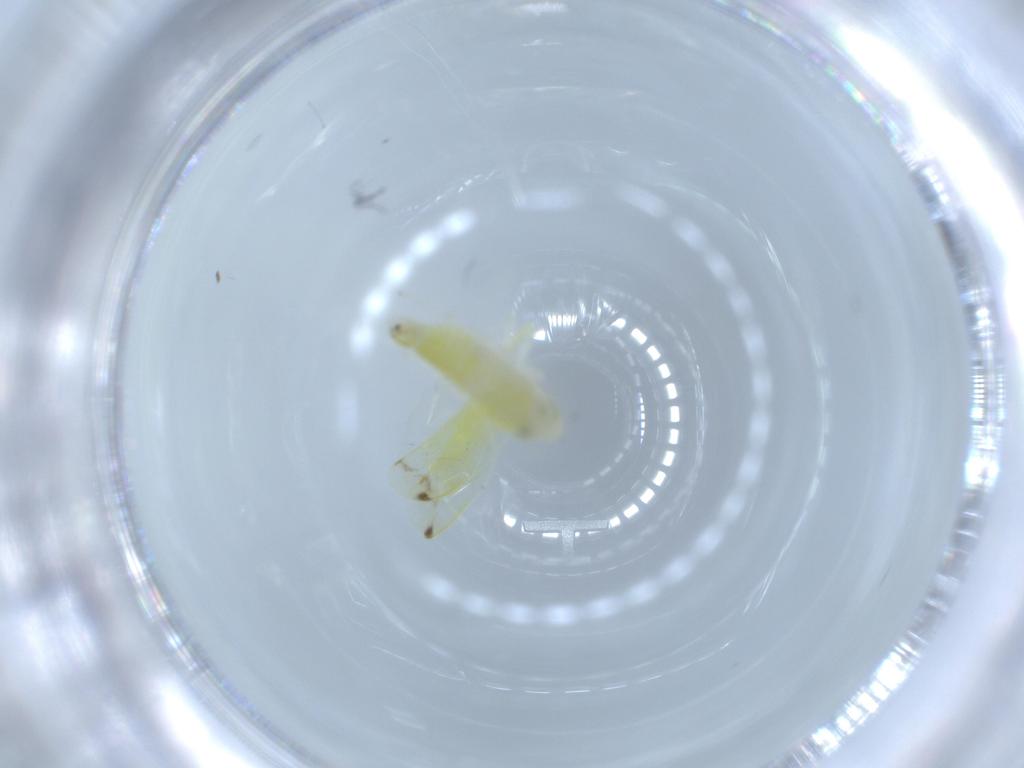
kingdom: Animalia
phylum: Arthropoda
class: Insecta
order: Hemiptera
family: Cicadellidae
